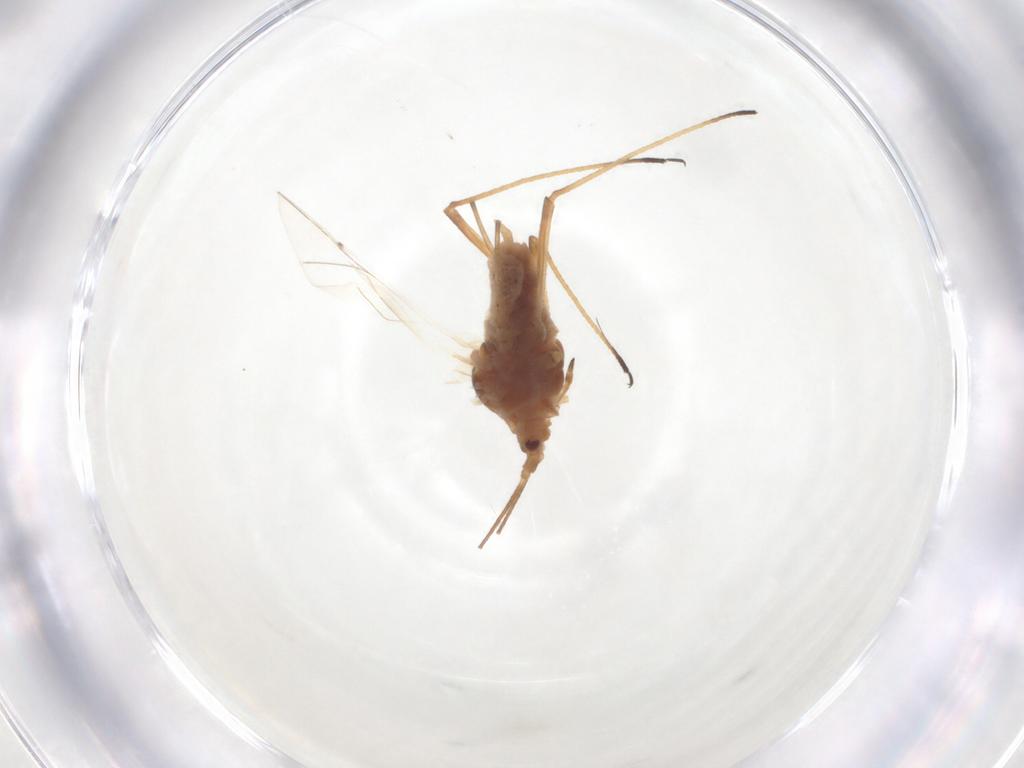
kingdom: Animalia
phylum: Arthropoda
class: Insecta
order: Hemiptera
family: Aphididae
